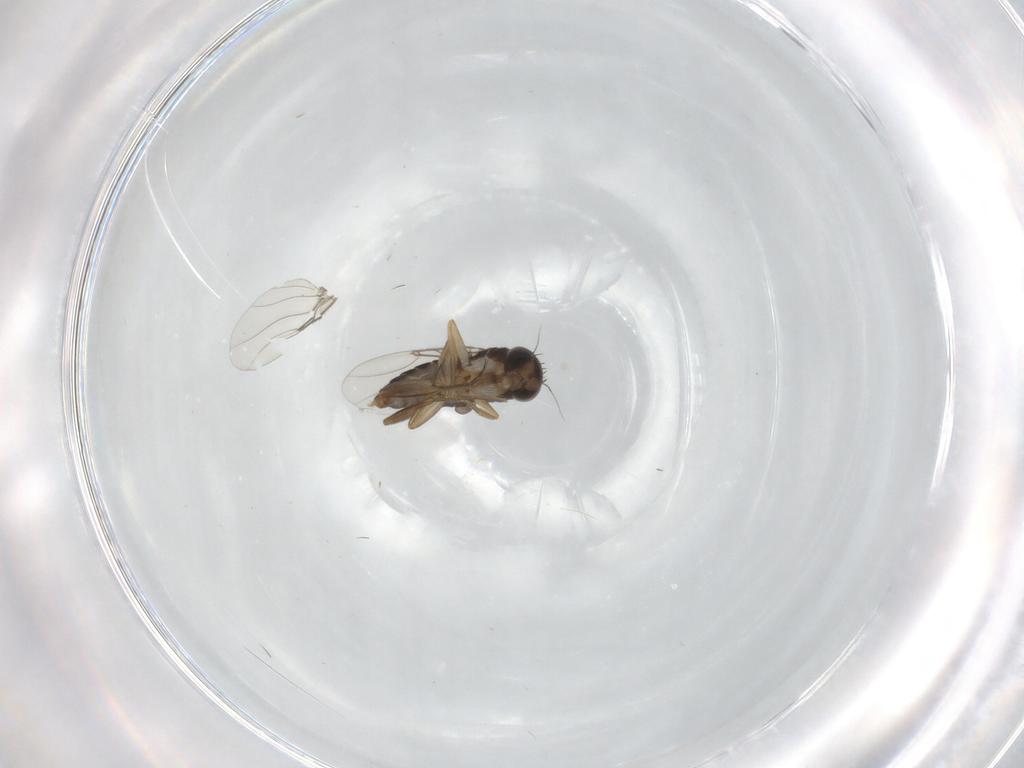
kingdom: Animalia
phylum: Arthropoda
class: Insecta
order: Diptera
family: Phoridae
